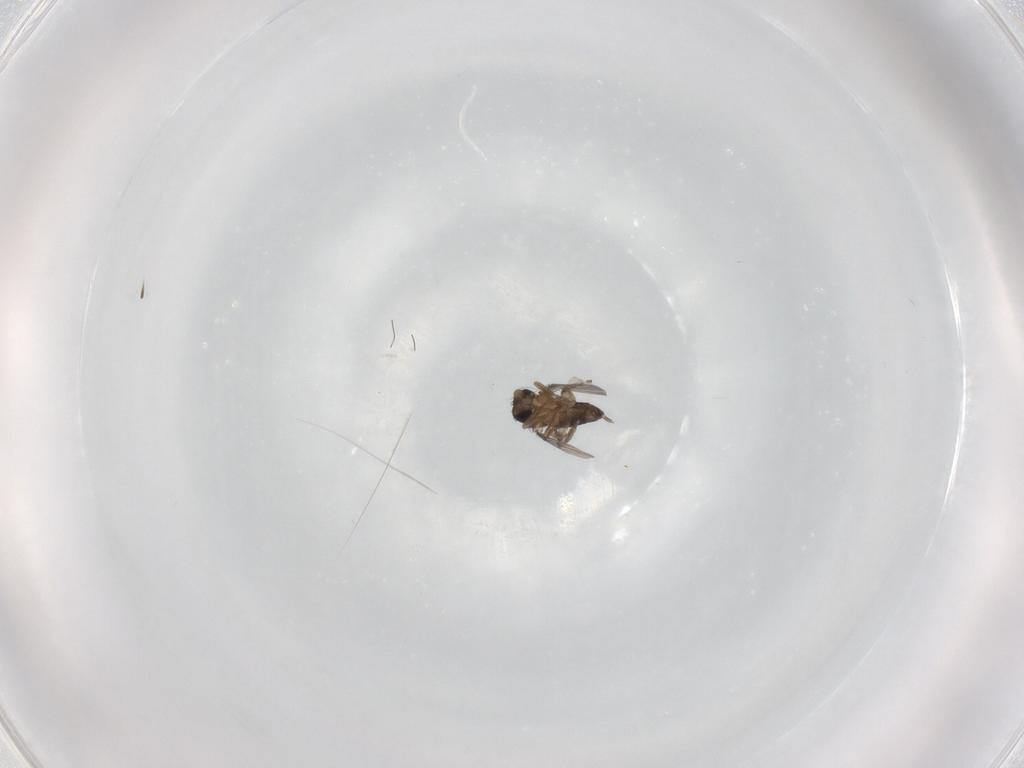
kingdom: Animalia
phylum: Arthropoda
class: Insecta
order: Diptera
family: Phoridae
